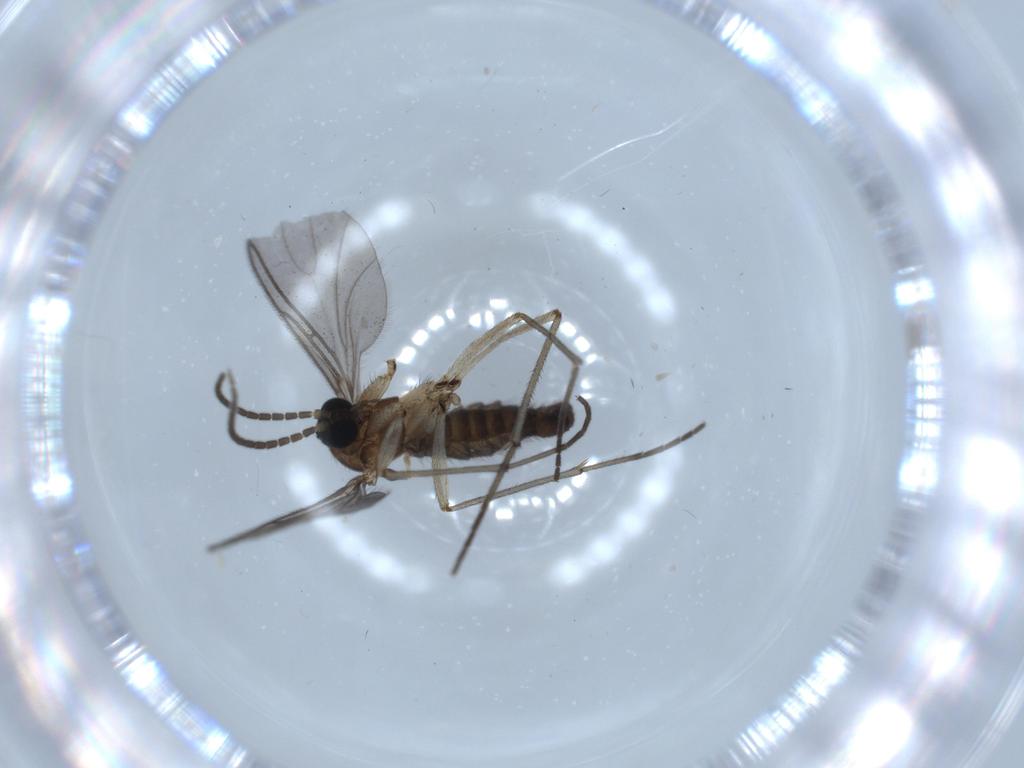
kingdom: Animalia
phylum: Arthropoda
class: Insecta
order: Diptera
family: Sciaridae
